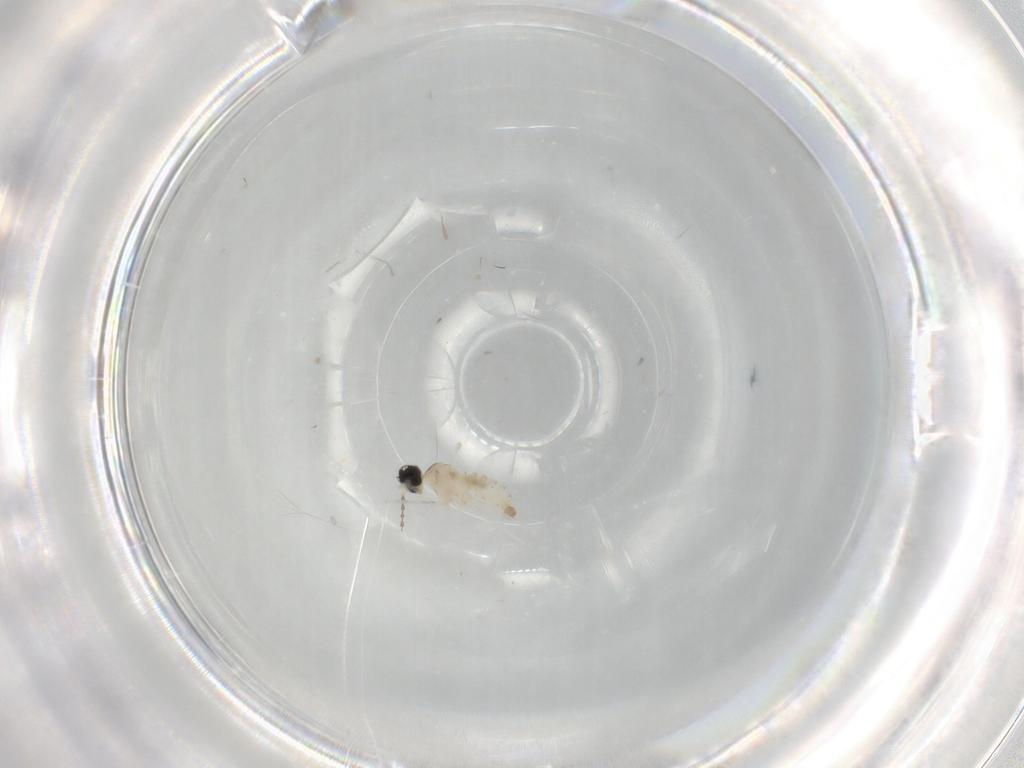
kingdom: Animalia
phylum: Arthropoda
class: Insecta
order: Diptera
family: Cecidomyiidae
